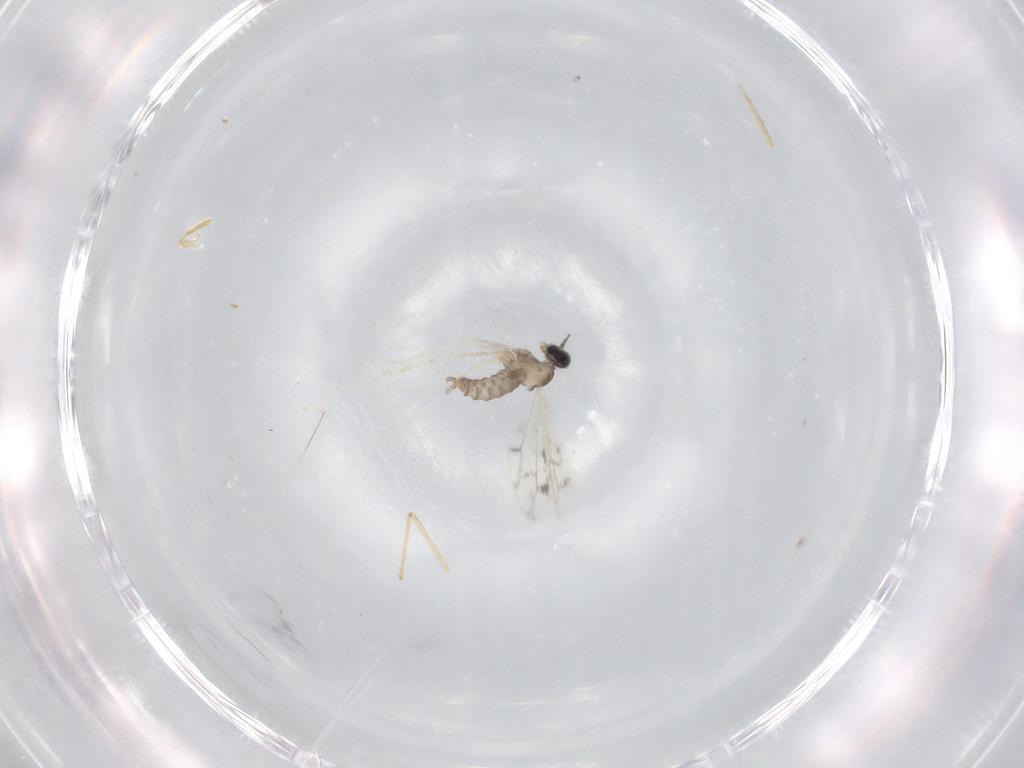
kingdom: Animalia
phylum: Arthropoda
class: Insecta
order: Diptera
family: Cecidomyiidae
